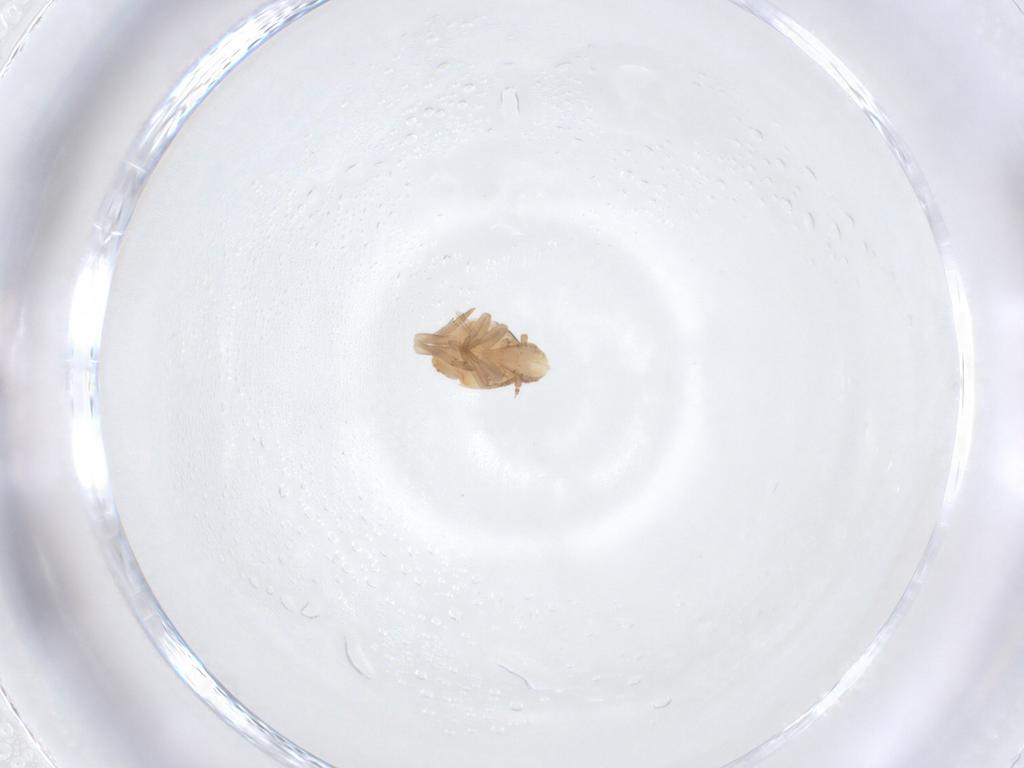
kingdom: Animalia
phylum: Arthropoda
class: Insecta
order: Hemiptera
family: Flatidae
